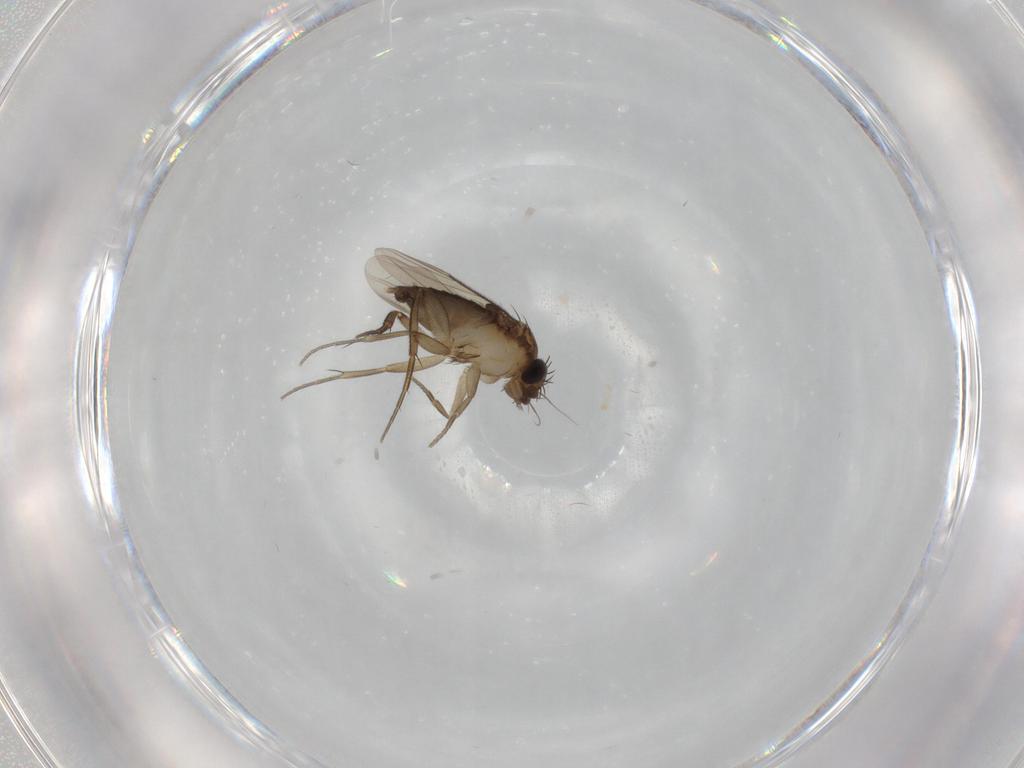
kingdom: Animalia
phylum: Arthropoda
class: Insecta
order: Diptera
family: Phoridae
